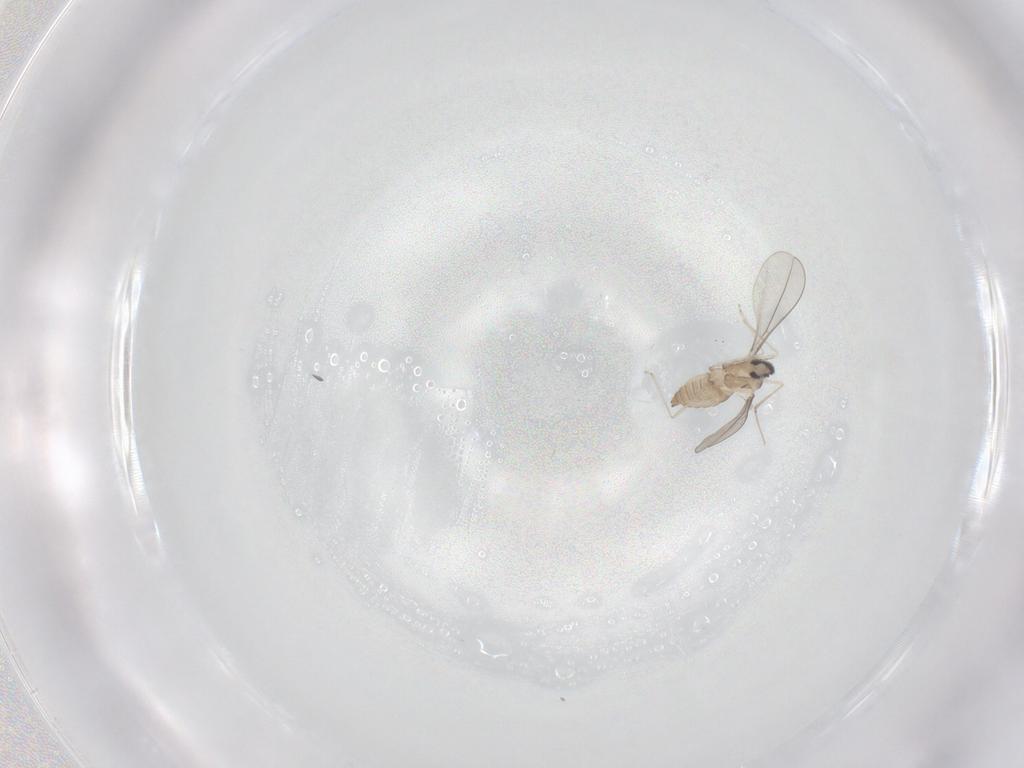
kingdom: Animalia
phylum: Arthropoda
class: Insecta
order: Diptera
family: Cecidomyiidae
